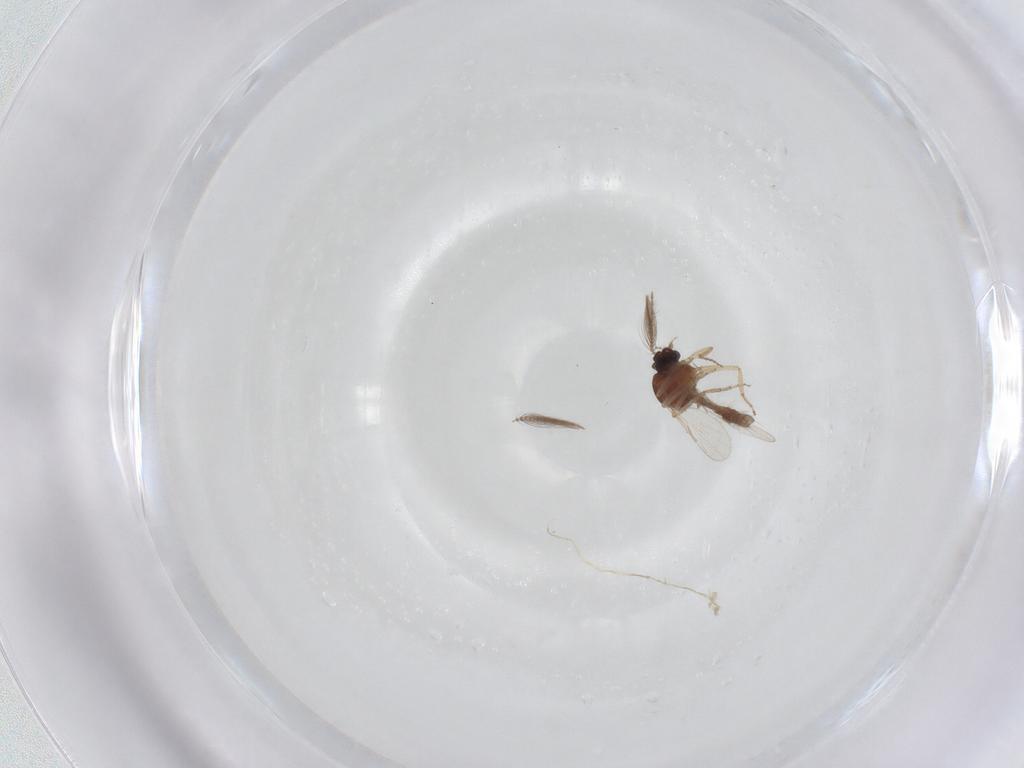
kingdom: Animalia
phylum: Arthropoda
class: Insecta
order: Diptera
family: Ceratopogonidae
